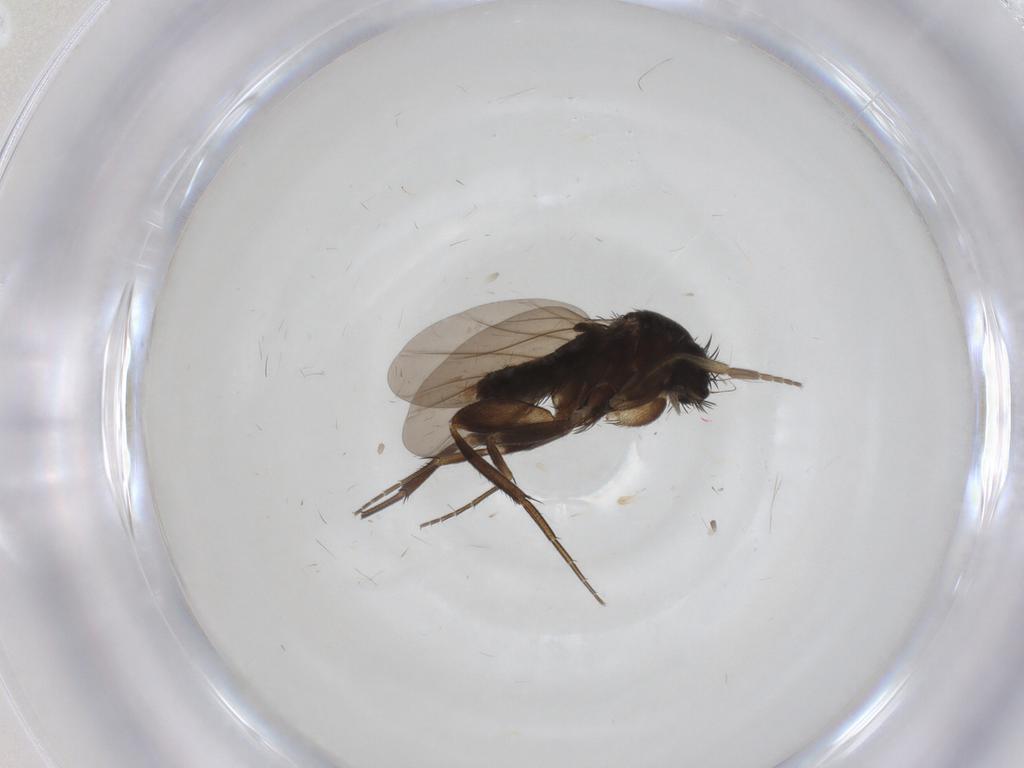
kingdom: Animalia
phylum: Arthropoda
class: Insecta
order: Diptera
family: Phoridae
